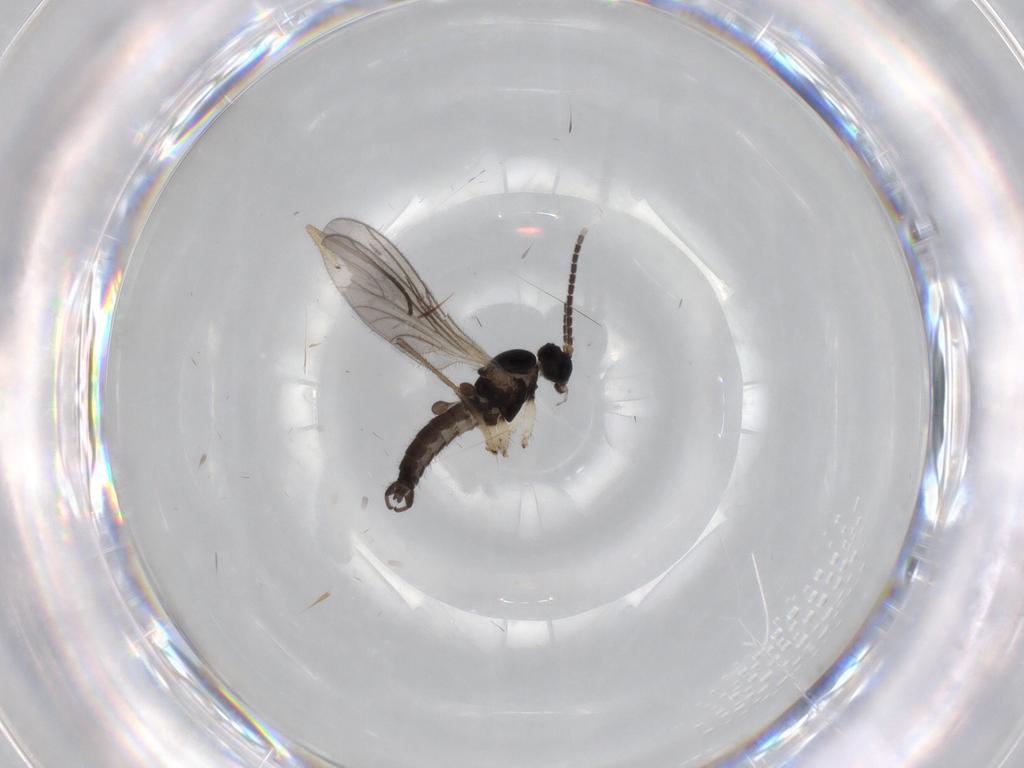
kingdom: Animalia
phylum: Arthropoda
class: Insecta
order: Diptera
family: Sciaridae
